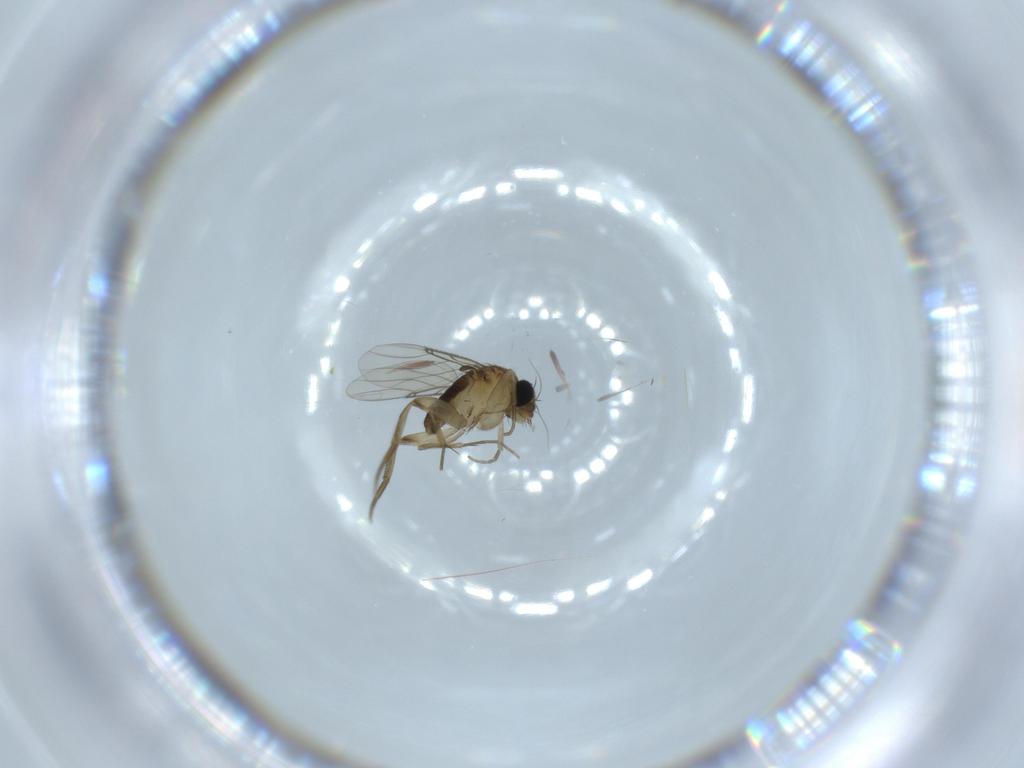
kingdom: Animalia
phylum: Arthropoda
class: Insecta
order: Diptera
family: Phoridae
